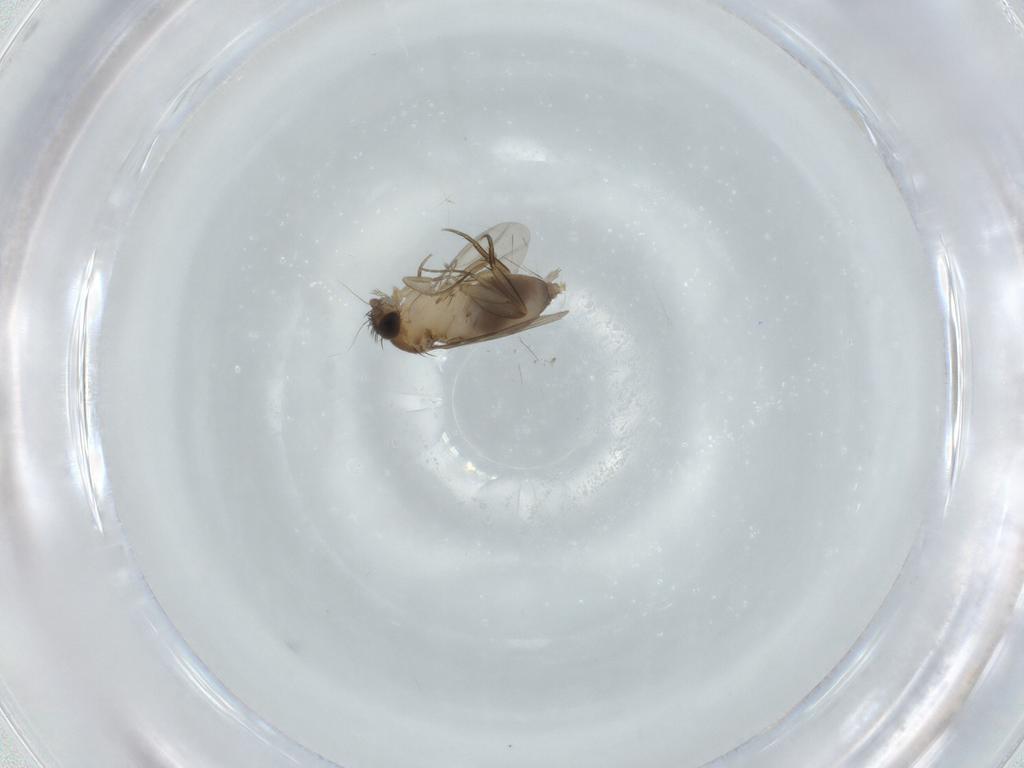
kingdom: Animalia
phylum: Arthropoda
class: Insecta
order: Diptera
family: Phoridae
